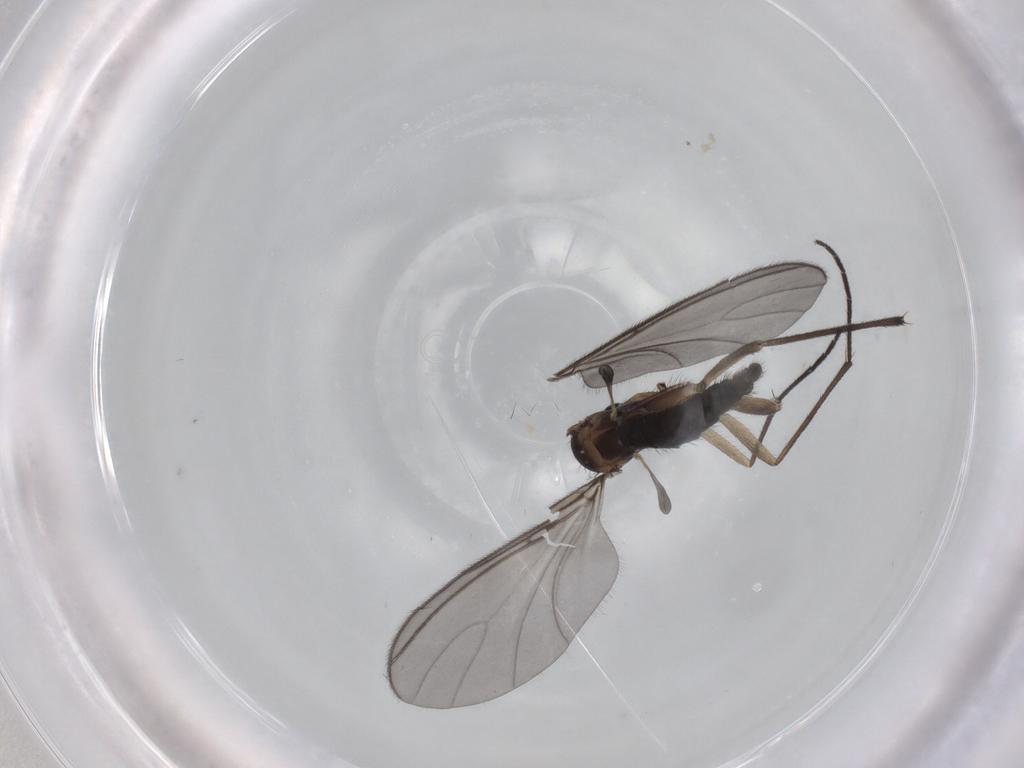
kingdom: Animalia
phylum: Arthropoda
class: Insecta
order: Diptera
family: Sciaridae
